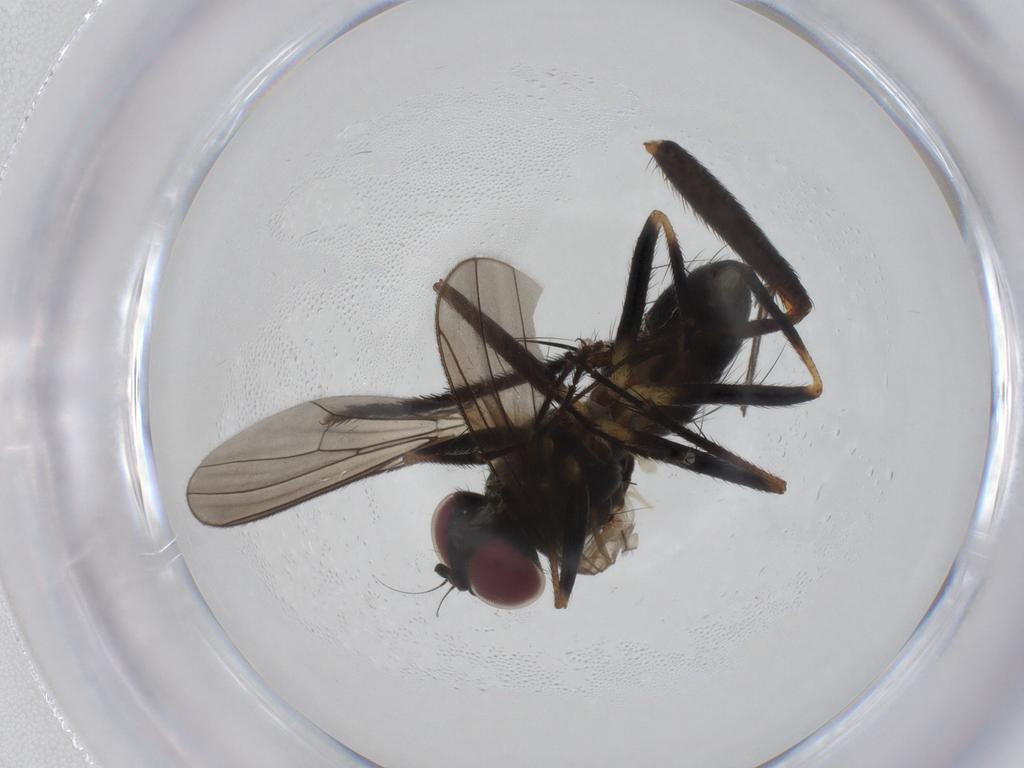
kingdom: Animalia
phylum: Arthropoda
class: Insecta
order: Diptera
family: Anthomyiidae
